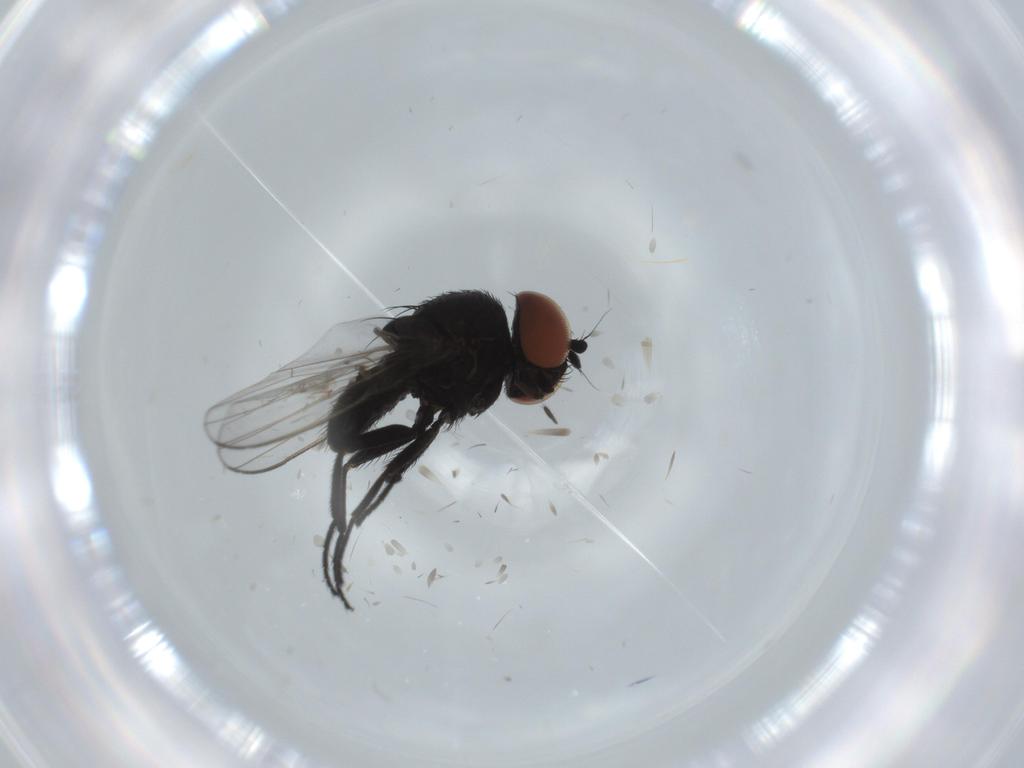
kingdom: Animalia
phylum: Arthropoda
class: Insecta
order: Diptera
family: Milichiidae
